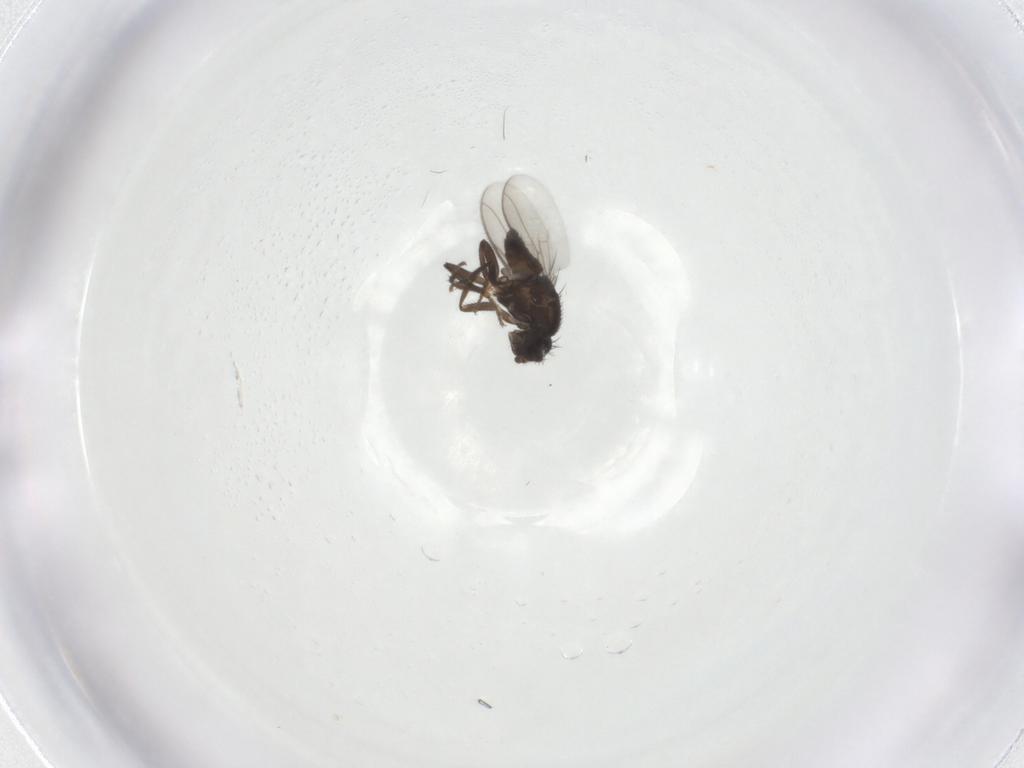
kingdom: Animalia
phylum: Arthropoda
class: Insecta
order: Diptera
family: Sphaeroceridae
